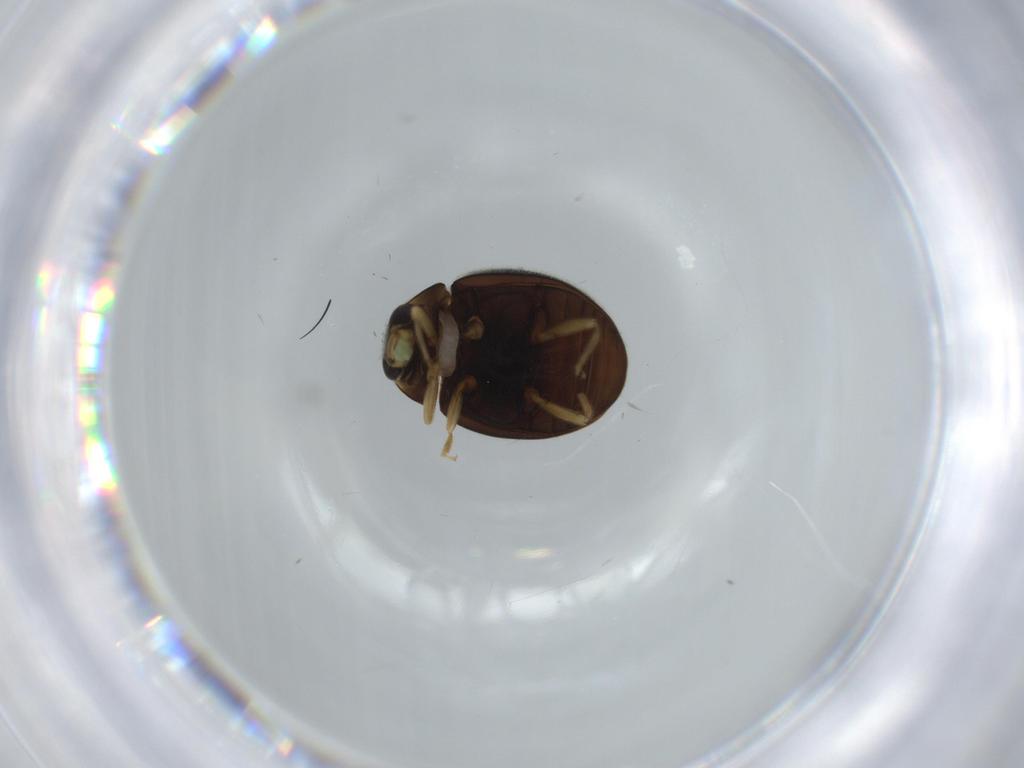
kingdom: Animalia
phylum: Arthropoda
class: Insecta
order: Coleoptera
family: Coccinellidae
